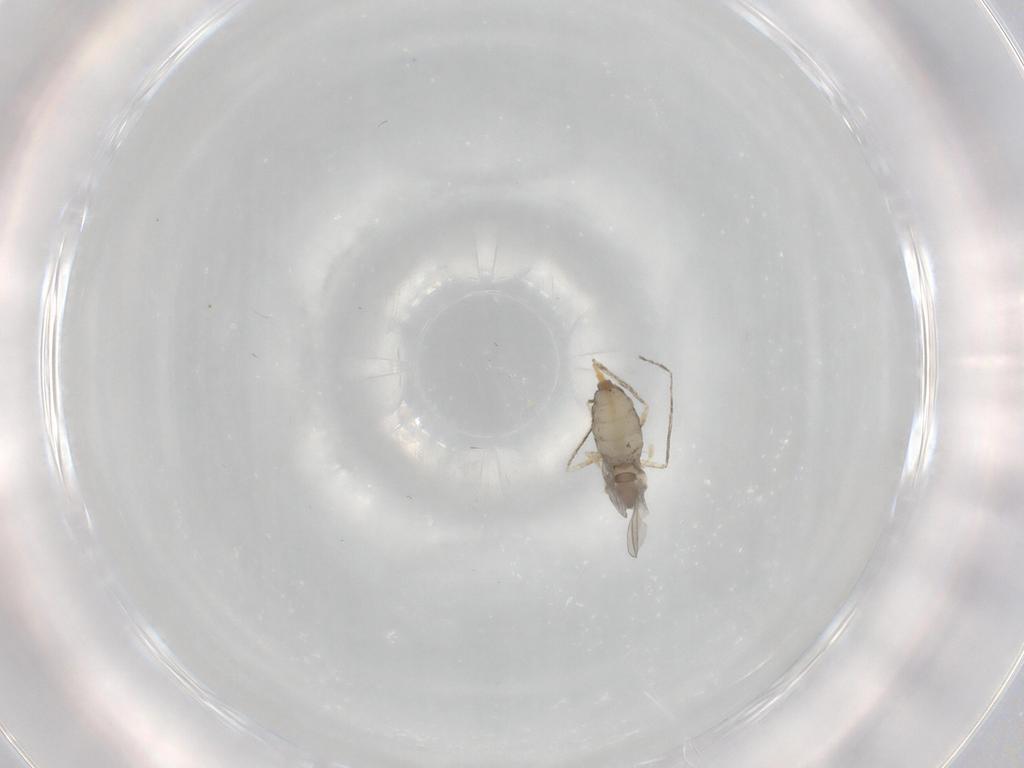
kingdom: Animalia
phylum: Arthropoda
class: Insecta
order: Diptera
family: Cecidomyiidae
